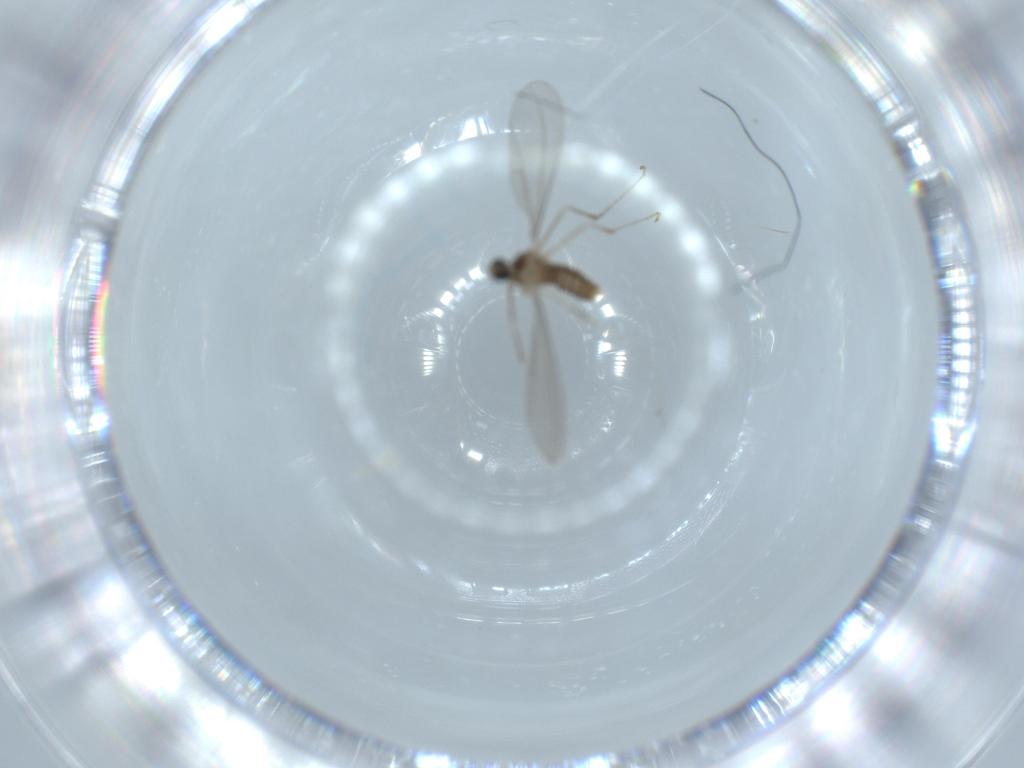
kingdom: Animalia
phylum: Arthropoda
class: Insecta
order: Diptera
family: Cecidomyiidae
